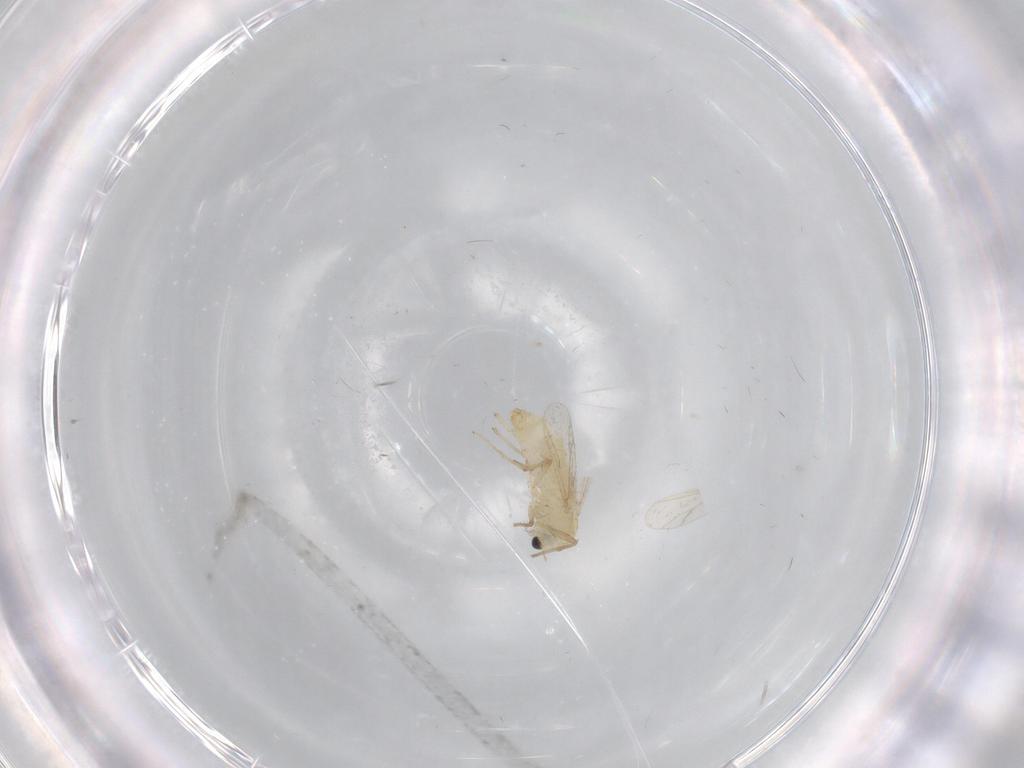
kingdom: Animalia
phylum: Arthropoda
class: Insecta
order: Diptera
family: Chironomidae
